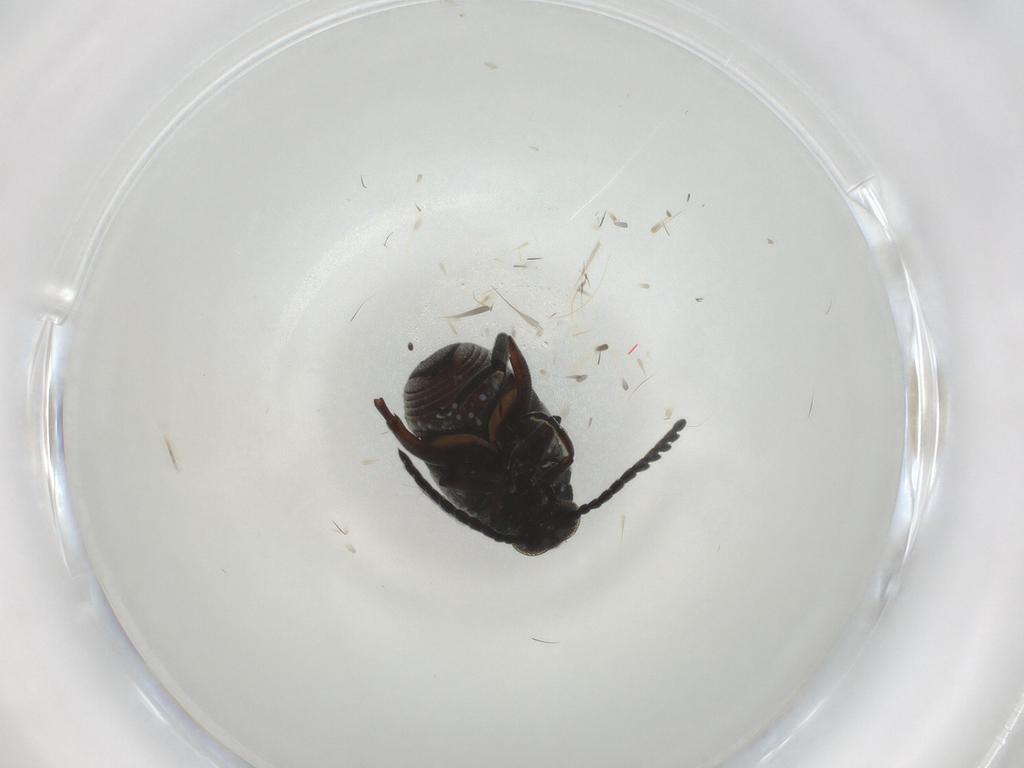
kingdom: Animalia
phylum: Arthropoda
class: Insecta
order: Coleoptera
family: Chrysomelidae
